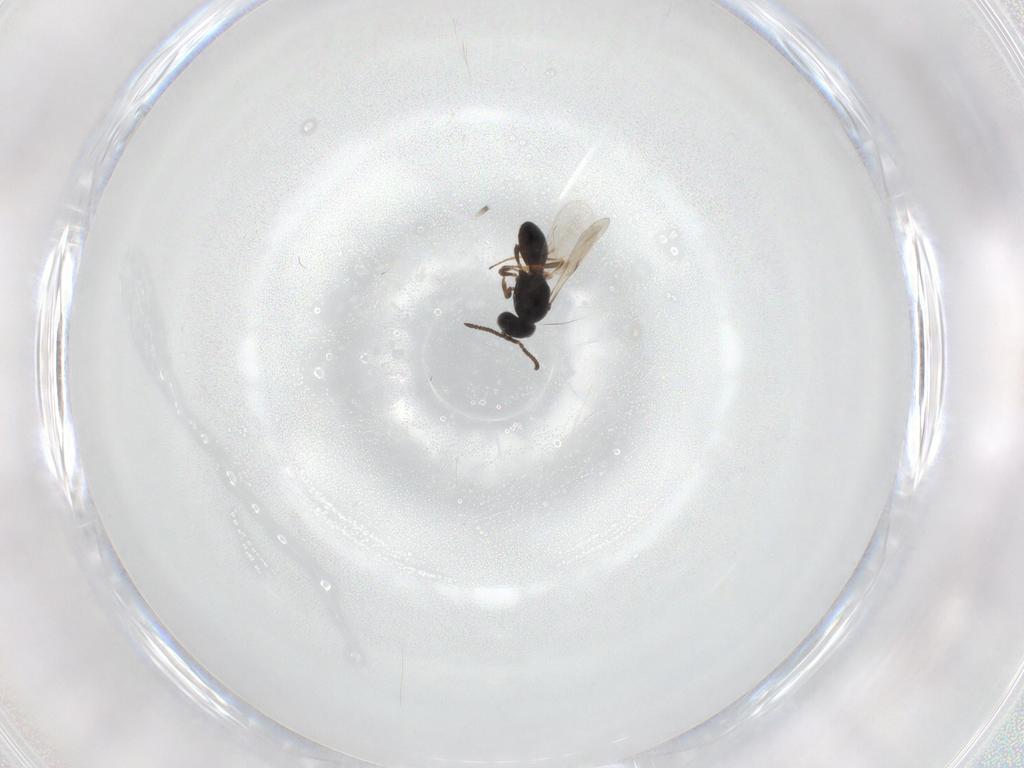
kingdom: Animalia
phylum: Arthropoda
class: Insecta
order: Hymenoptera
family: Scelionidae
